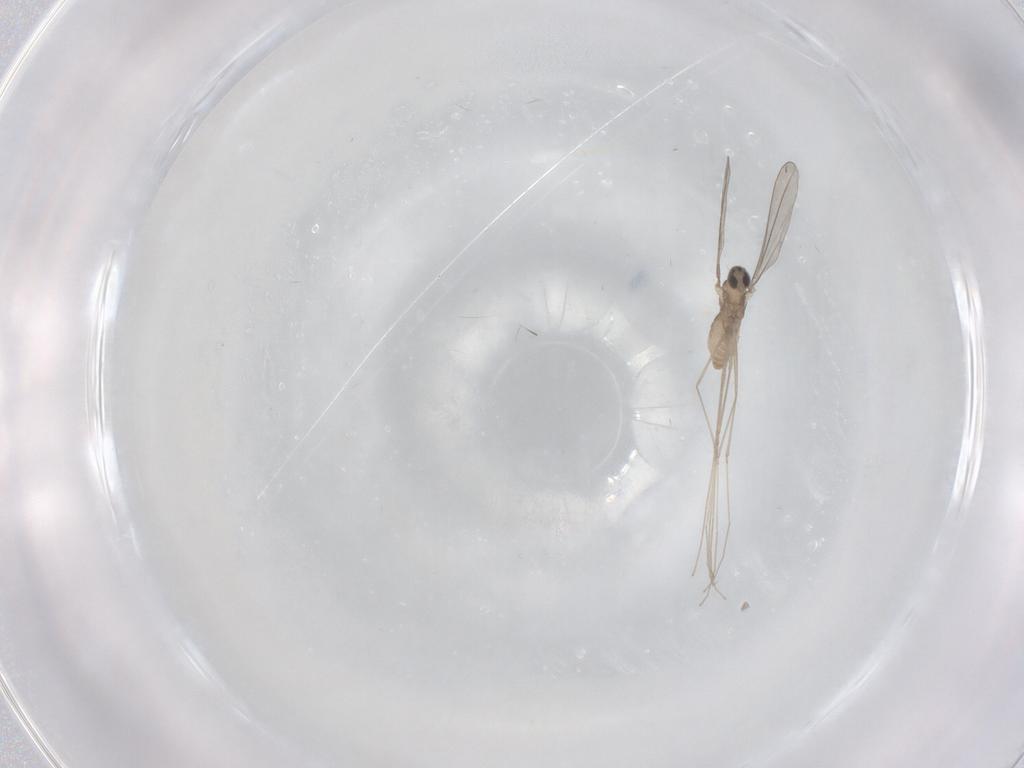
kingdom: Animalia
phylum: Arthropoda
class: Insecta
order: Diptera
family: Cecidomyiidae
